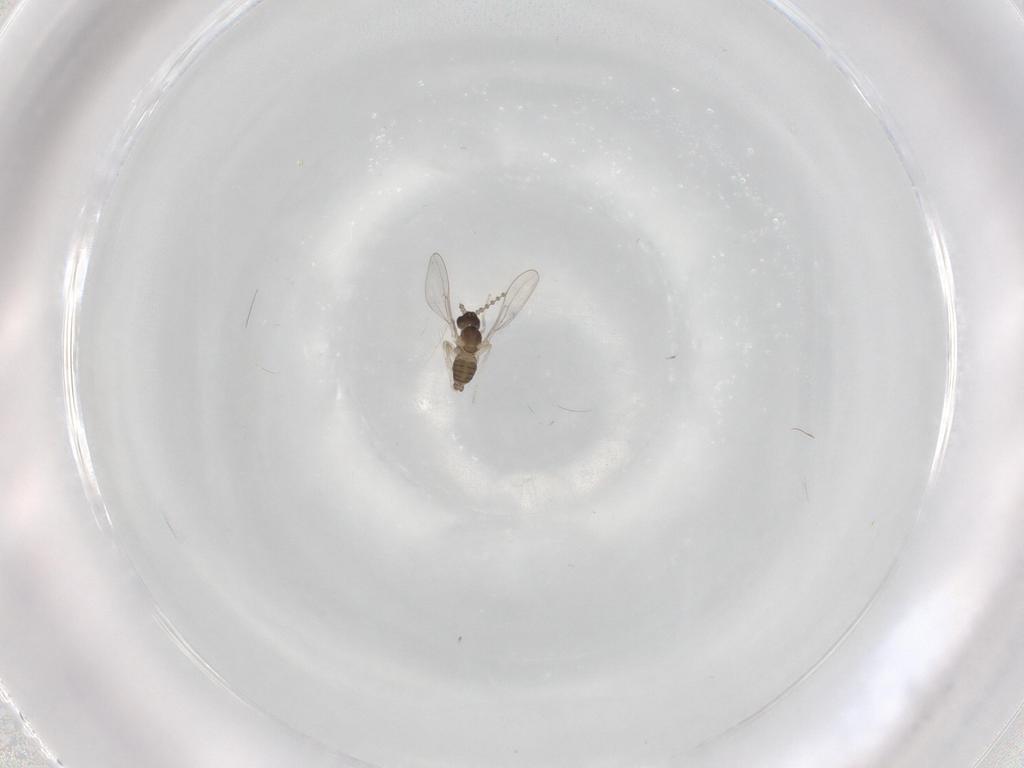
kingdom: Animalia
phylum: Arthropoda
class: Insecta
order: Diptera
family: Cecidomyiidae
